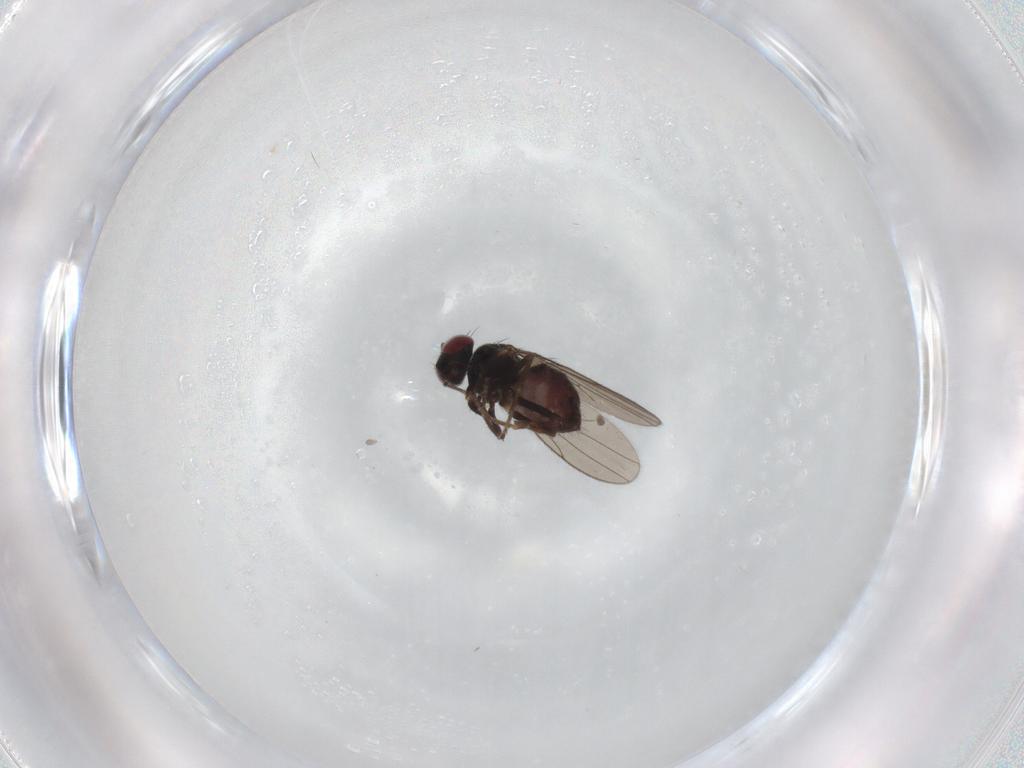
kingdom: Animalia
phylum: Arthropoda
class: Insecta
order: Diptera
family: Ephydridae
